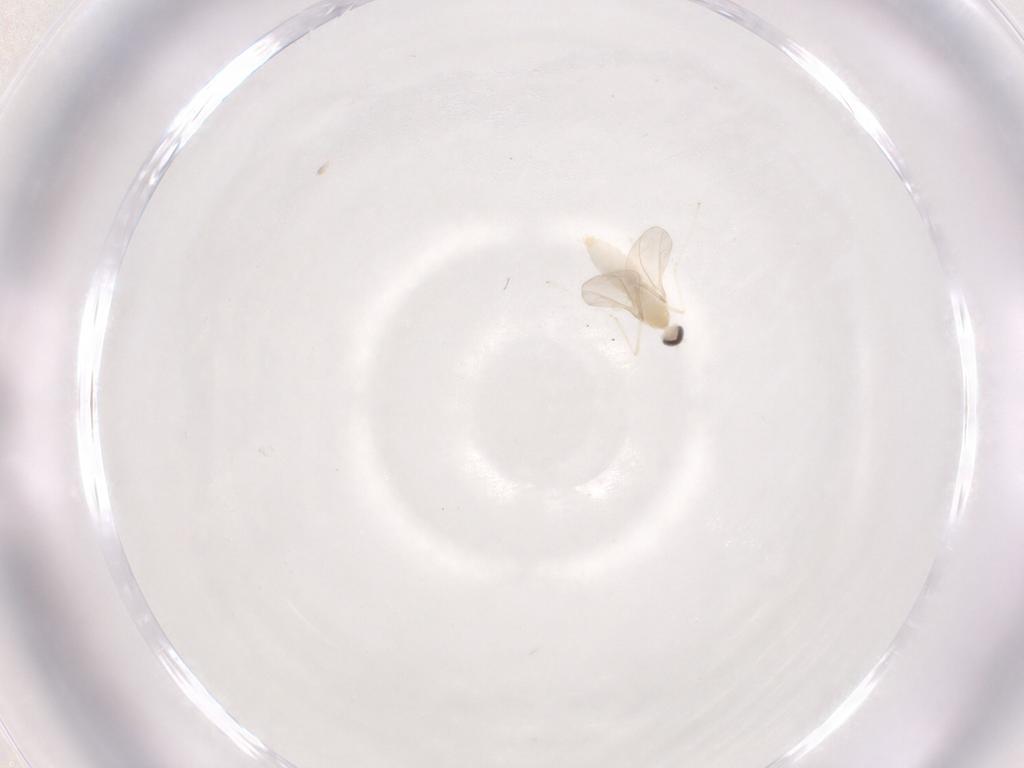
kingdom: Animalia
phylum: Arthropoda
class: Insecta
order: Diptera
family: Cecidomyiidae
